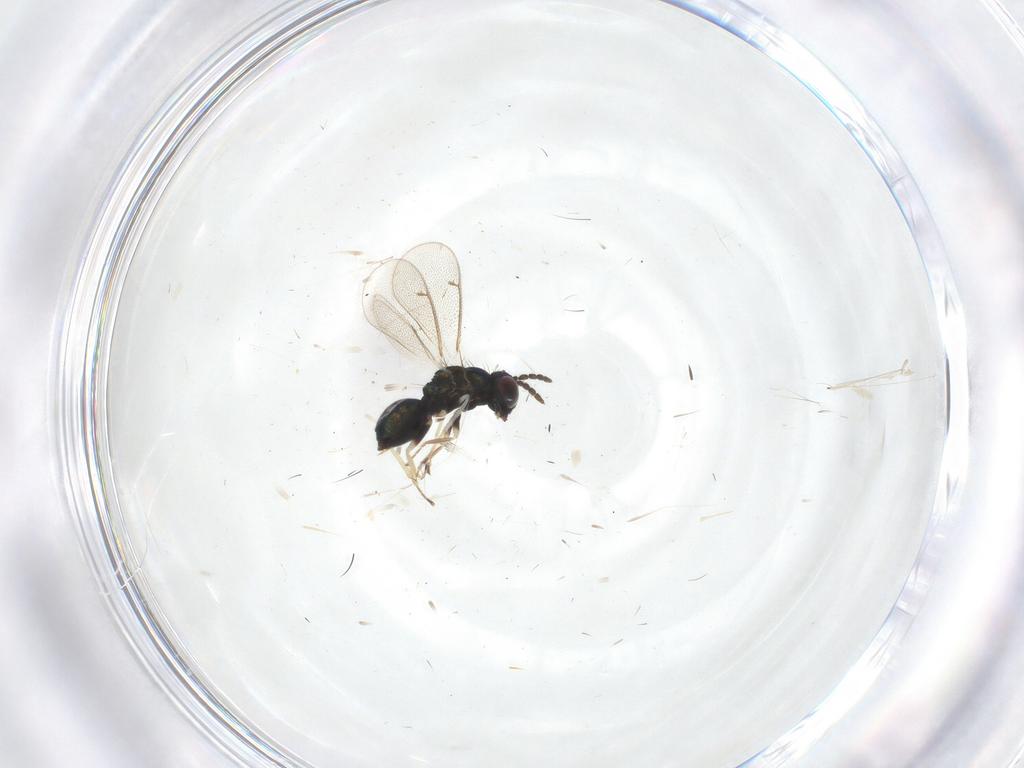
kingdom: Animalia
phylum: Arthropoda
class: Insecta
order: Hymenoptera
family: Eulophidae
